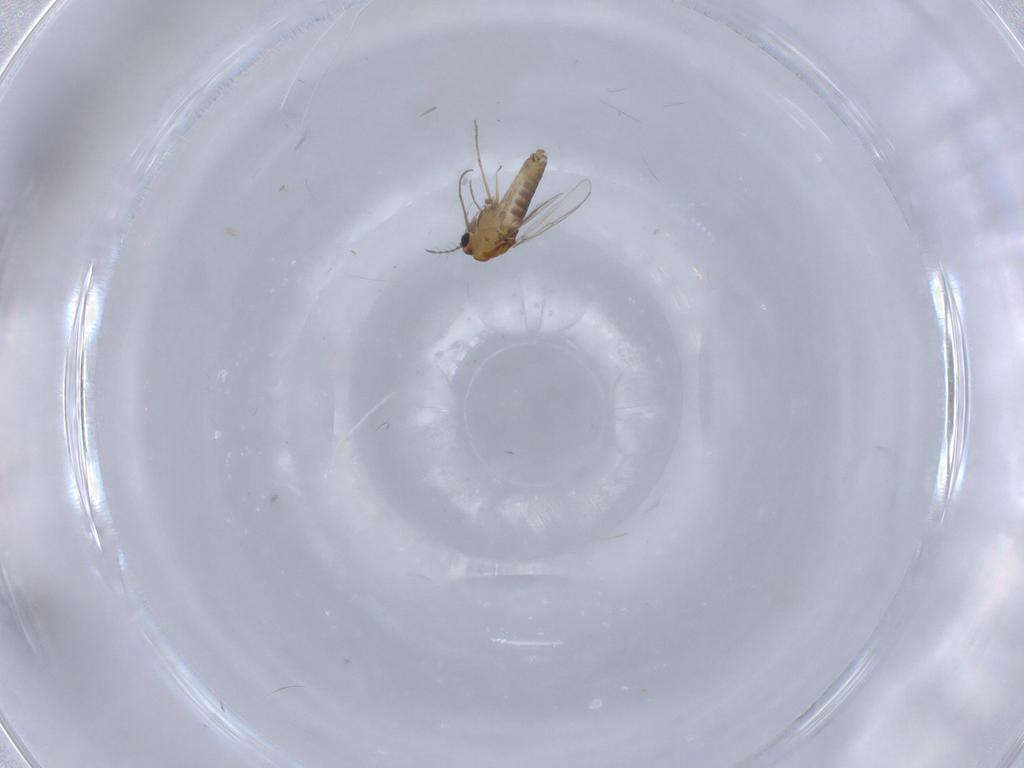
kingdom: Animalia
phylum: Arthropoda
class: Insecta
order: Diptera
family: Chironomidae
